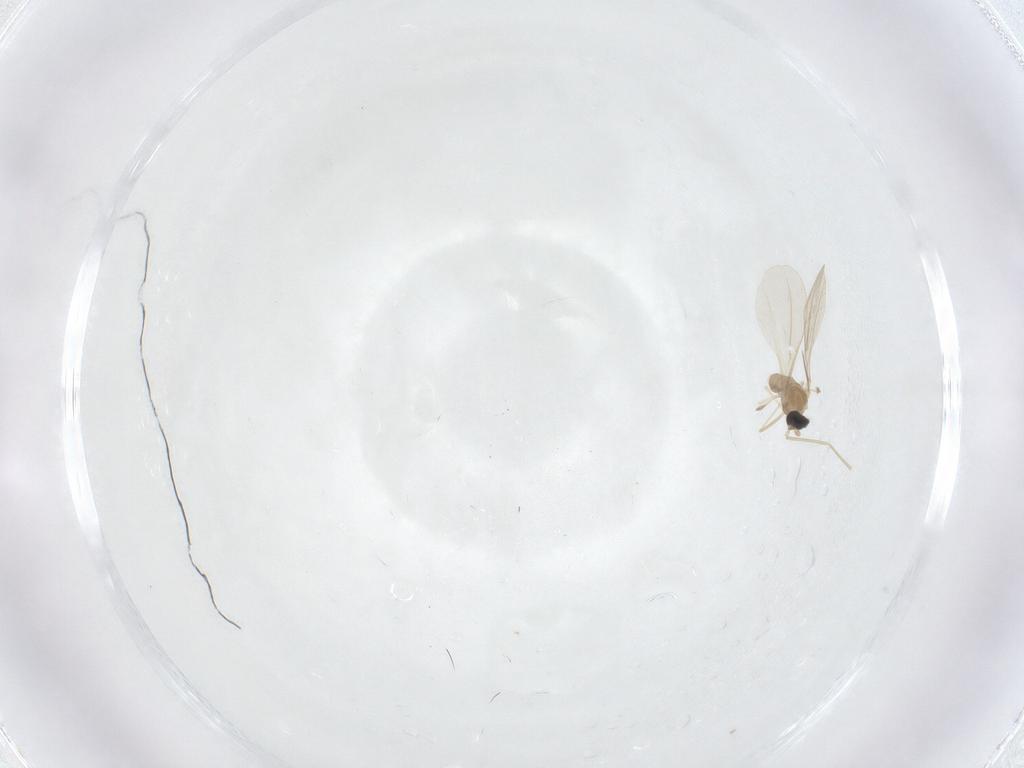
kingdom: Animalia
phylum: Arthropoda
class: Insecta
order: Diptera
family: Cecidomyiidae
